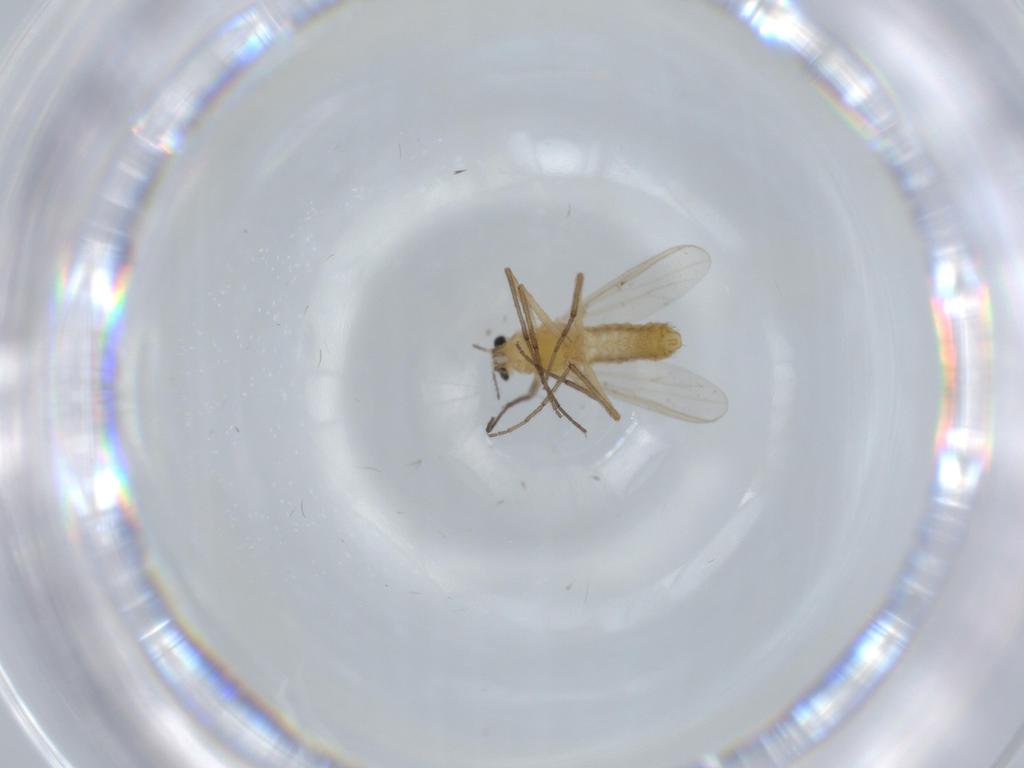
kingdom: Animalia
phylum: Arthropoda
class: Insecta
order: Diptera
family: Chironomidae
